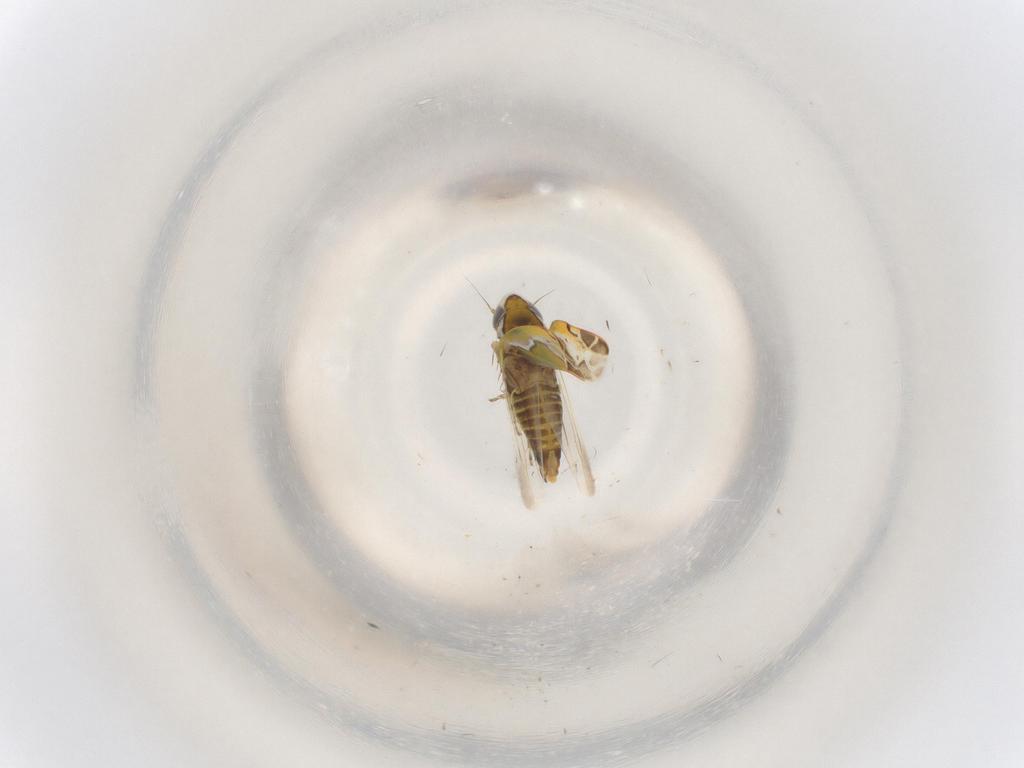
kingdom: Animalia
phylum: Arthropoda
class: Insecta
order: Hemiptera
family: Cicadellidae
